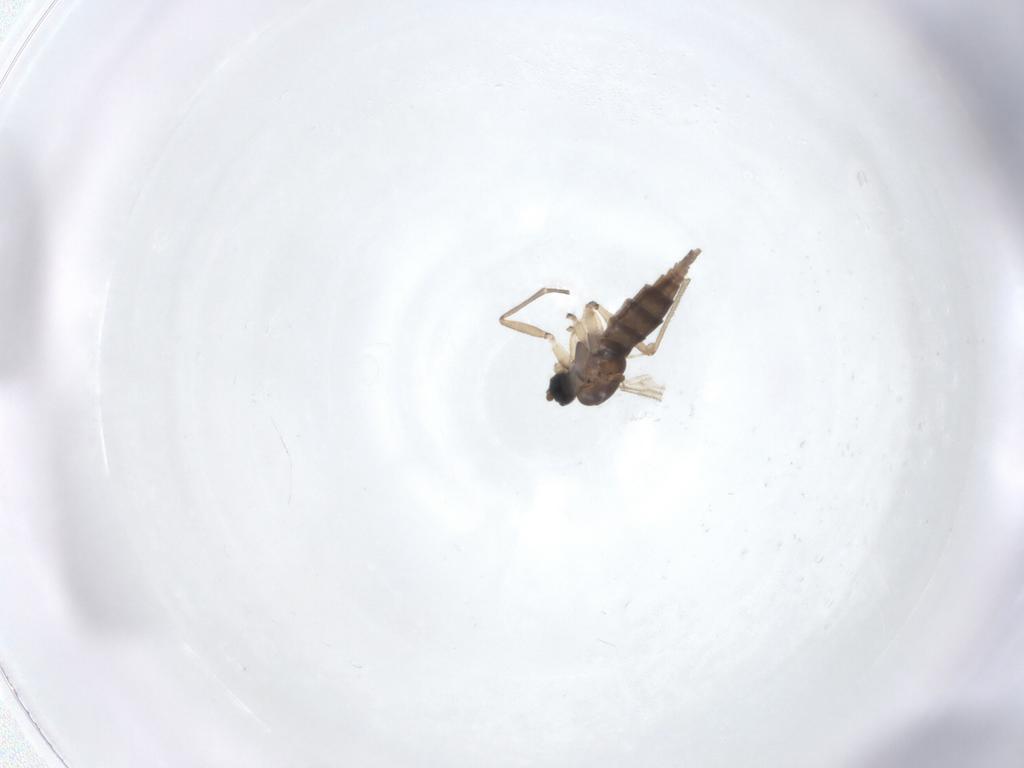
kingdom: Animalia
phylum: Arthropoda
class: Insecta
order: Diptera
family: Sciaridae
